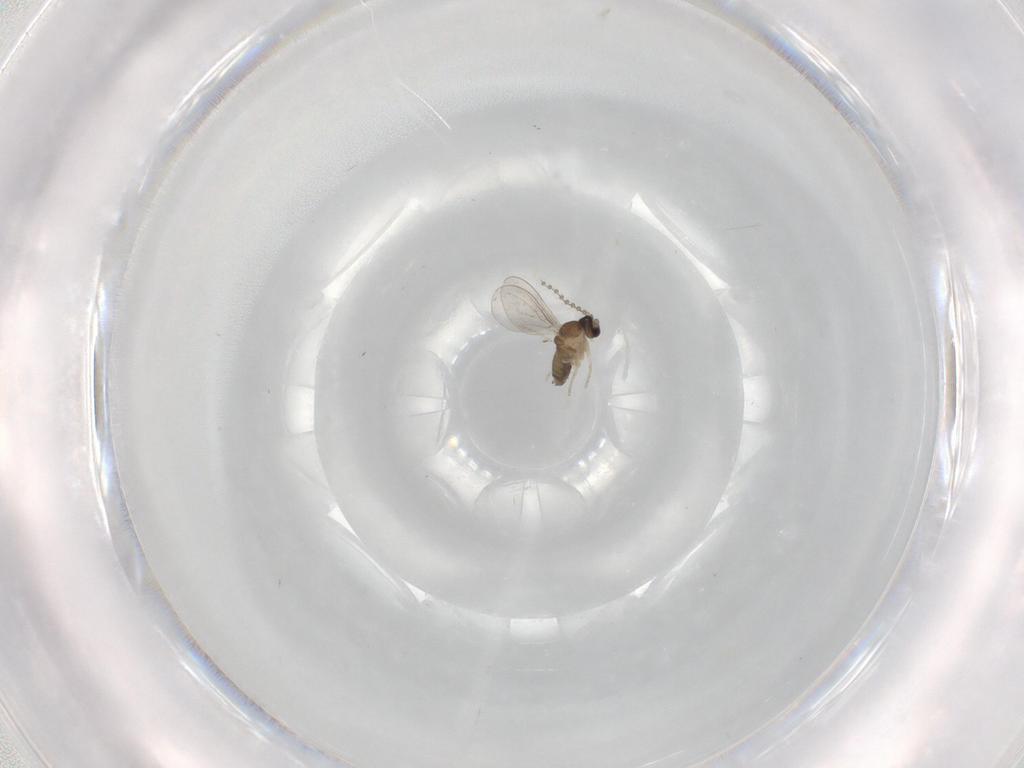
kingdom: Animalia
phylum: Arthropoda
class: Insecta
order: Diptera
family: Cecidomyiidae
